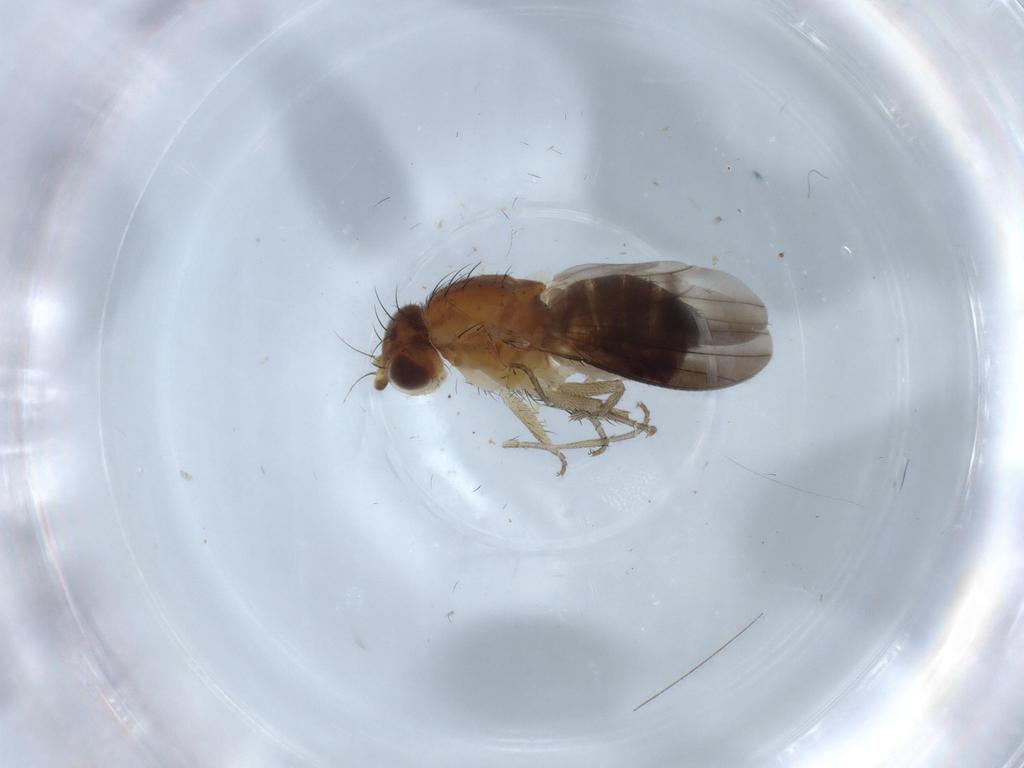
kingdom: Animalia
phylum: Arthropoda
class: Insecta
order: Diptera
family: Heleomyzidae
